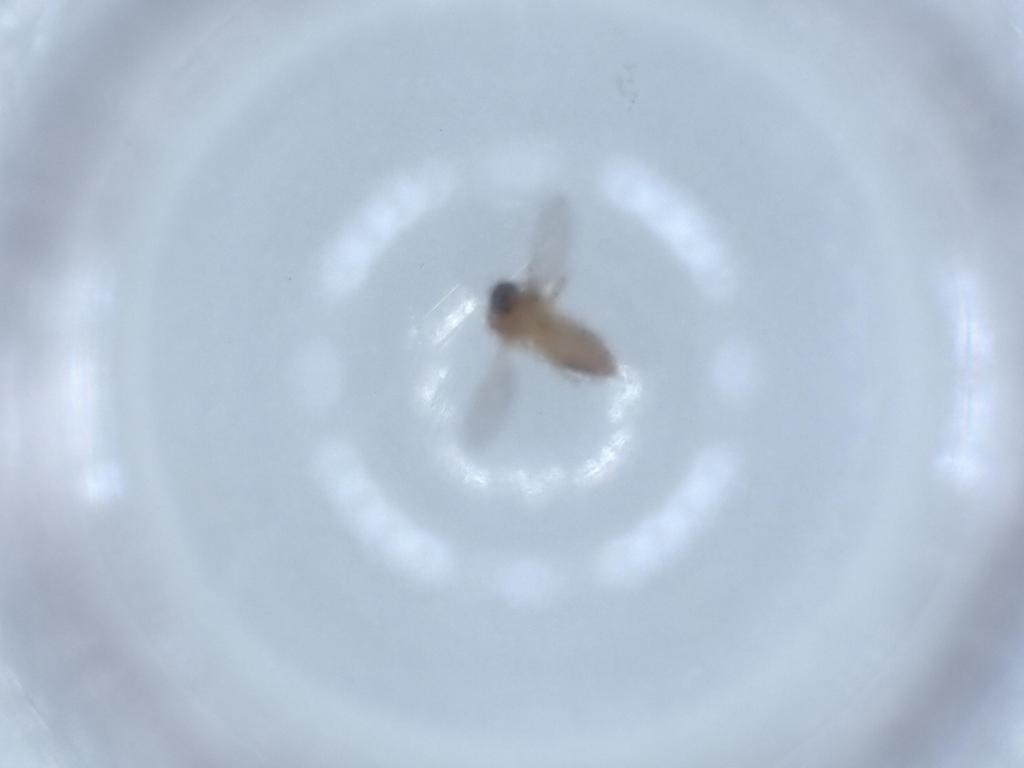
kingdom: Animalia
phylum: Arthropoda
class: Insecta
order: Diptera
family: Ceratopogonidae
